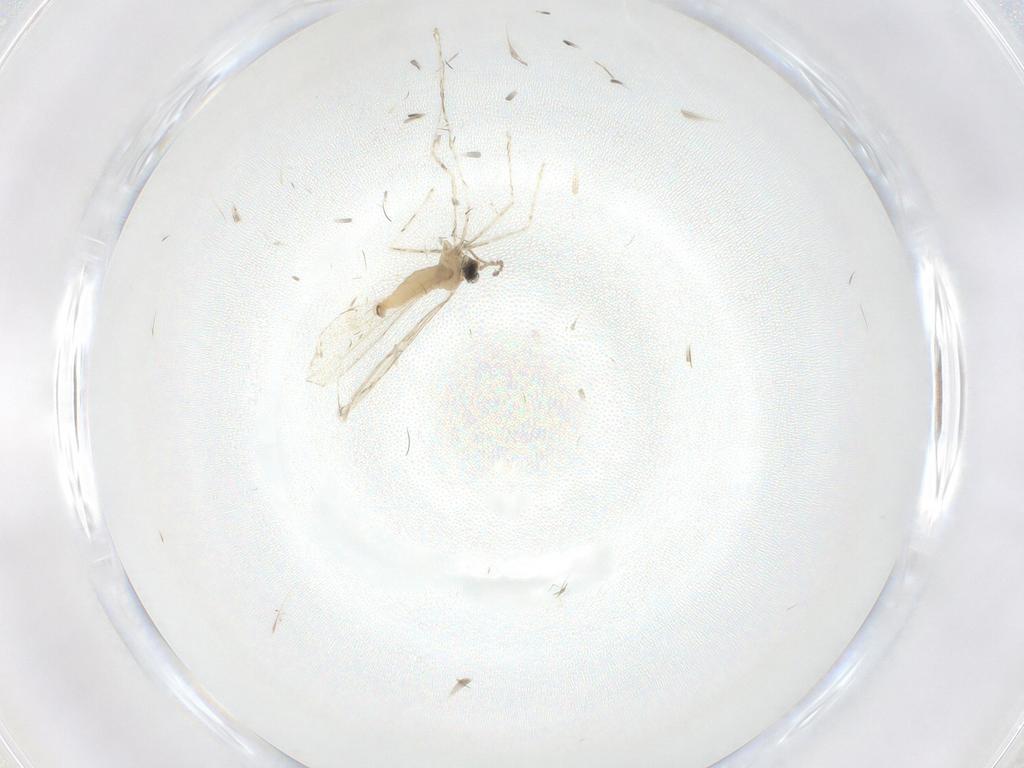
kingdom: Animalia
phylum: Arthropoda
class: Insecta
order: Diptera
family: Cecidomyiidae
